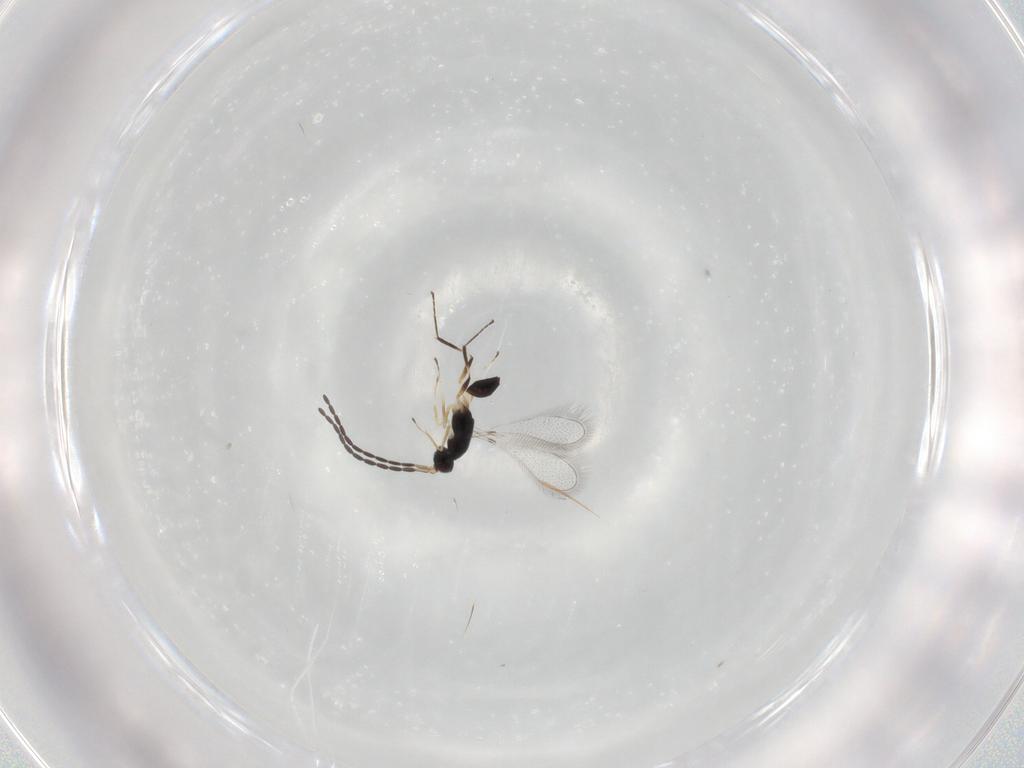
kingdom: Animalia
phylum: Arthropoda
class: Insecta
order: Hymenoptera
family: Mymaridae
